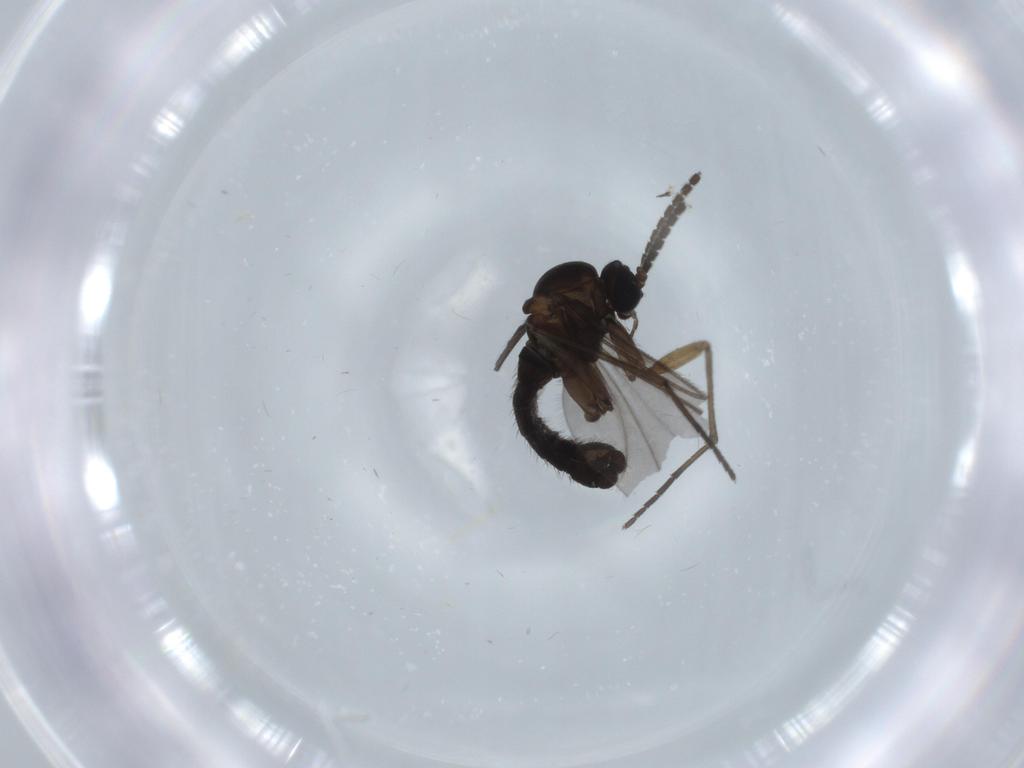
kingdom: Animalia
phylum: Arthropoda
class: Insecta
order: Diptera
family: Sciaridae
